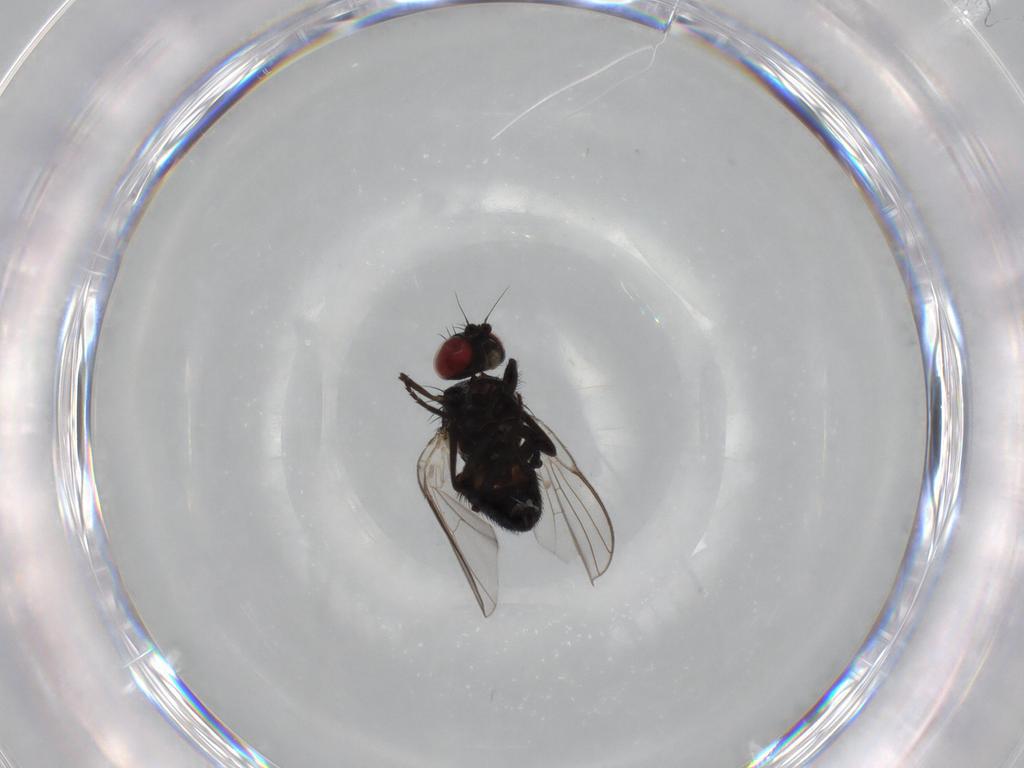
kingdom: Animalia
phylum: Arthropoda
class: Insecta
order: Diptera
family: Agromyzidae
